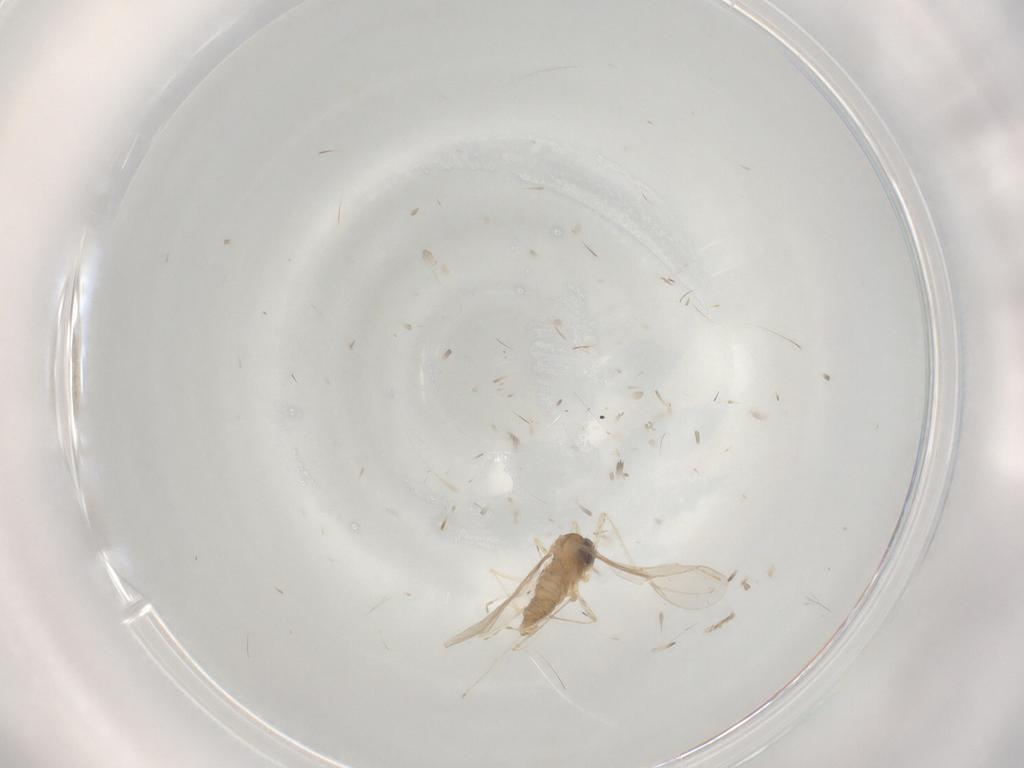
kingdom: Animalia
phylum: Arthropoda
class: Insecta
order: Diptera
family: Cecidomyiidae
